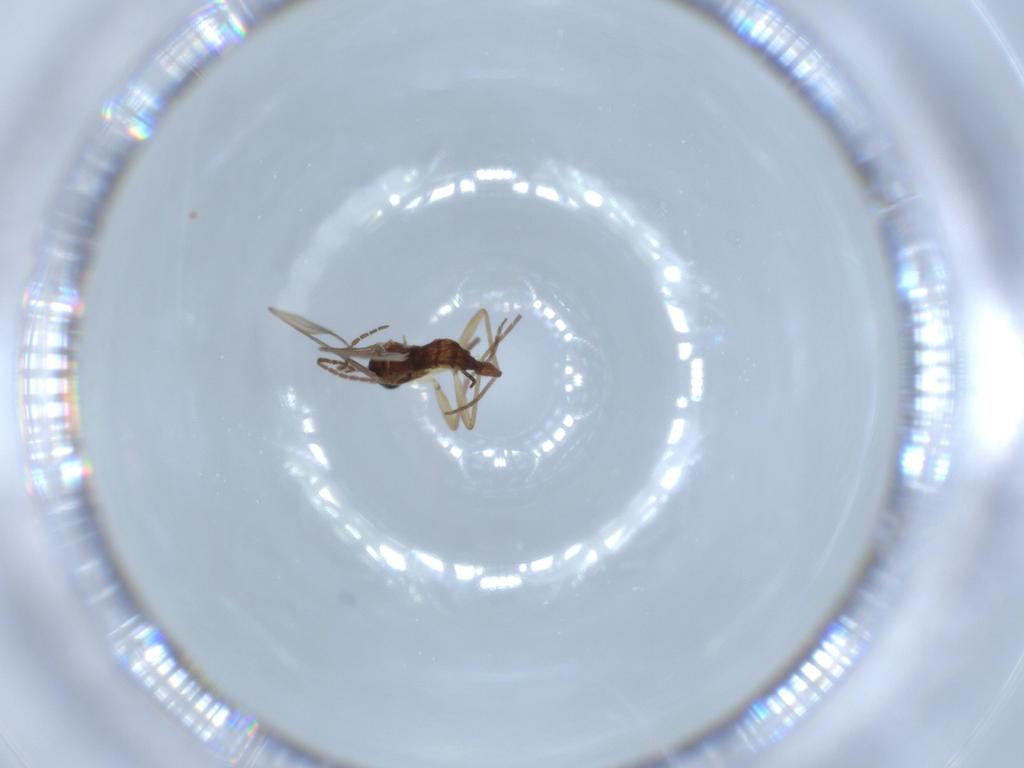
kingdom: Animalia
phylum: Arthropoda
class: Insecta
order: Diptera
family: Sciaridae
